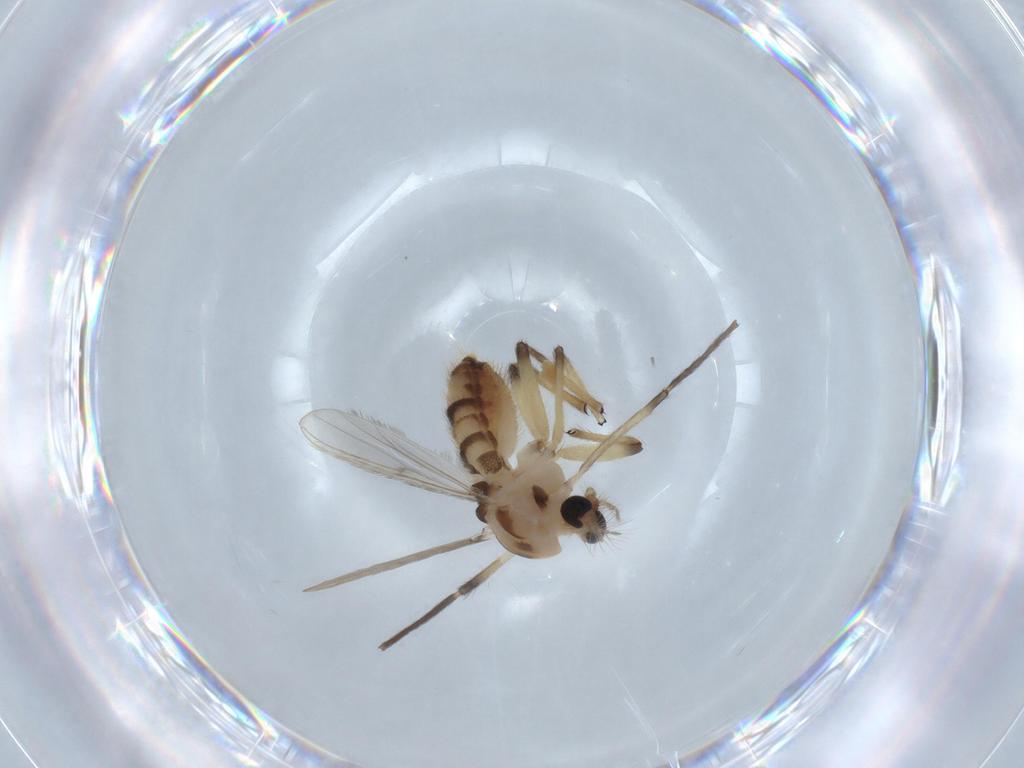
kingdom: Animalia
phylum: Arthropoda
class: Insecta
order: Diptera
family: Chironomidae
